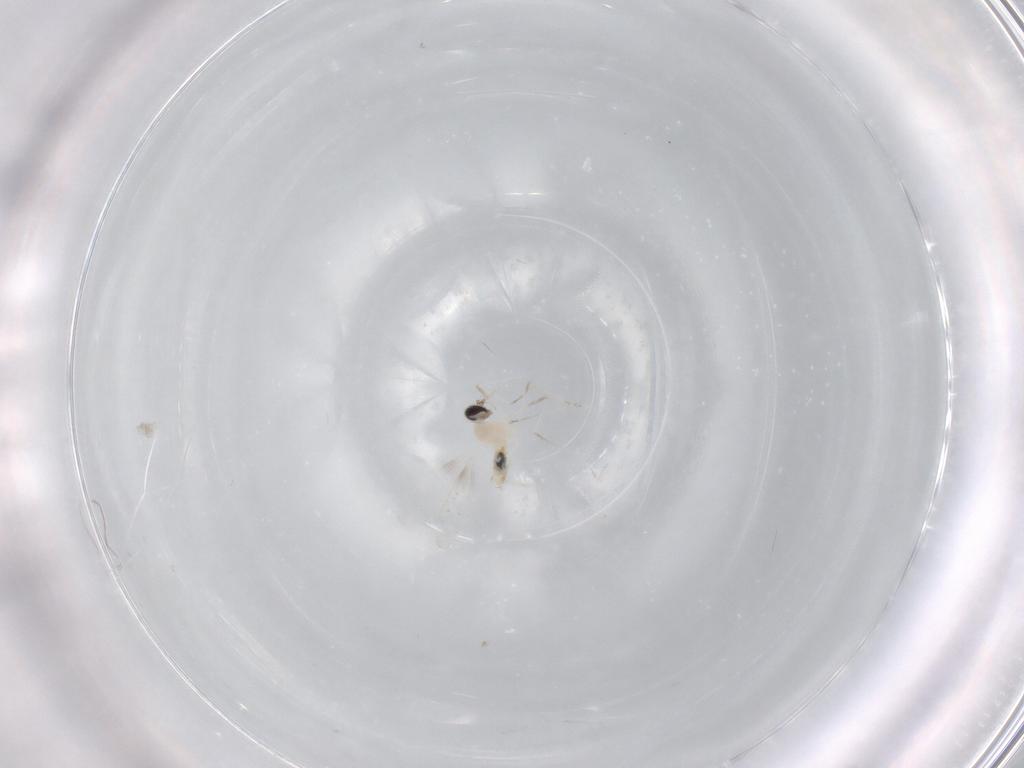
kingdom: Animalia
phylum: Arthropoda
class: Insecta
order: Diptera
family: Cecidomyiidae
